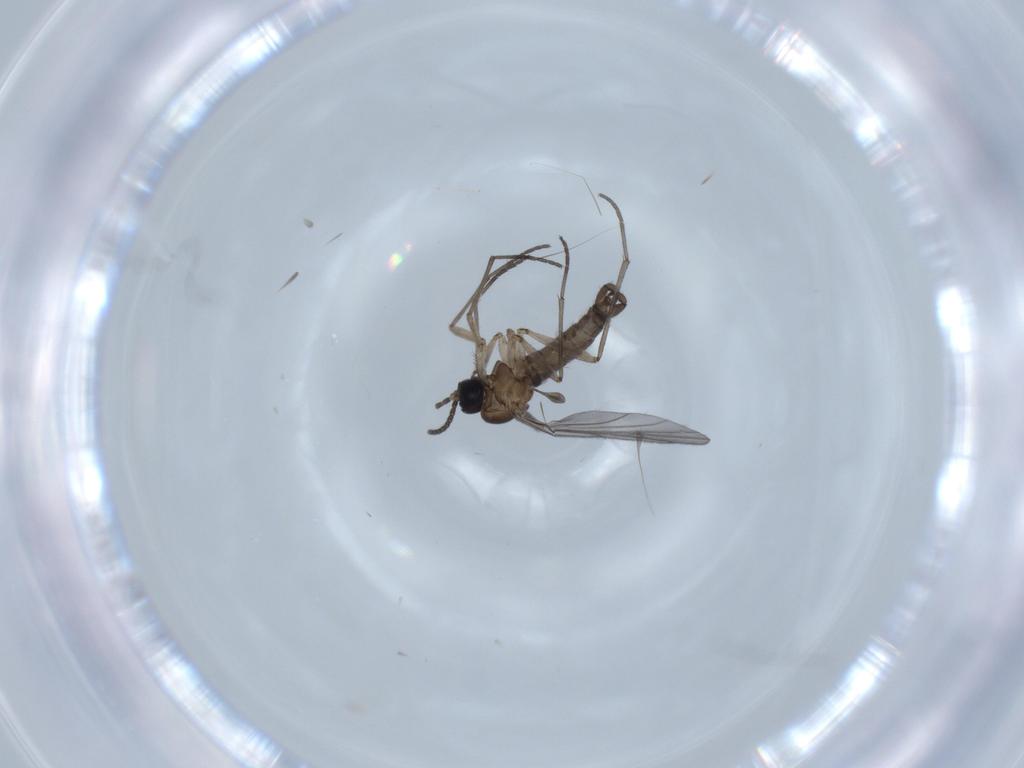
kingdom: Animalia
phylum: Arthropoda
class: Insecta
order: Diptera
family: Sciaridae
